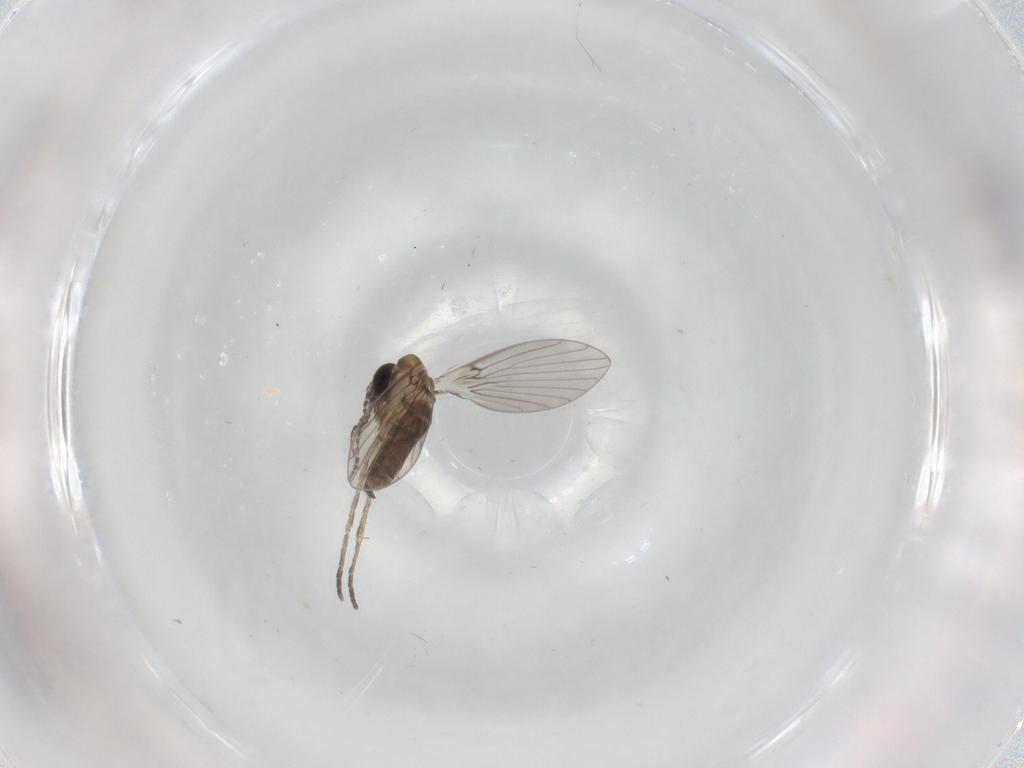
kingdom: Animalia
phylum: Arthropoda
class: Insecta
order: Diptera
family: Psychodidae
